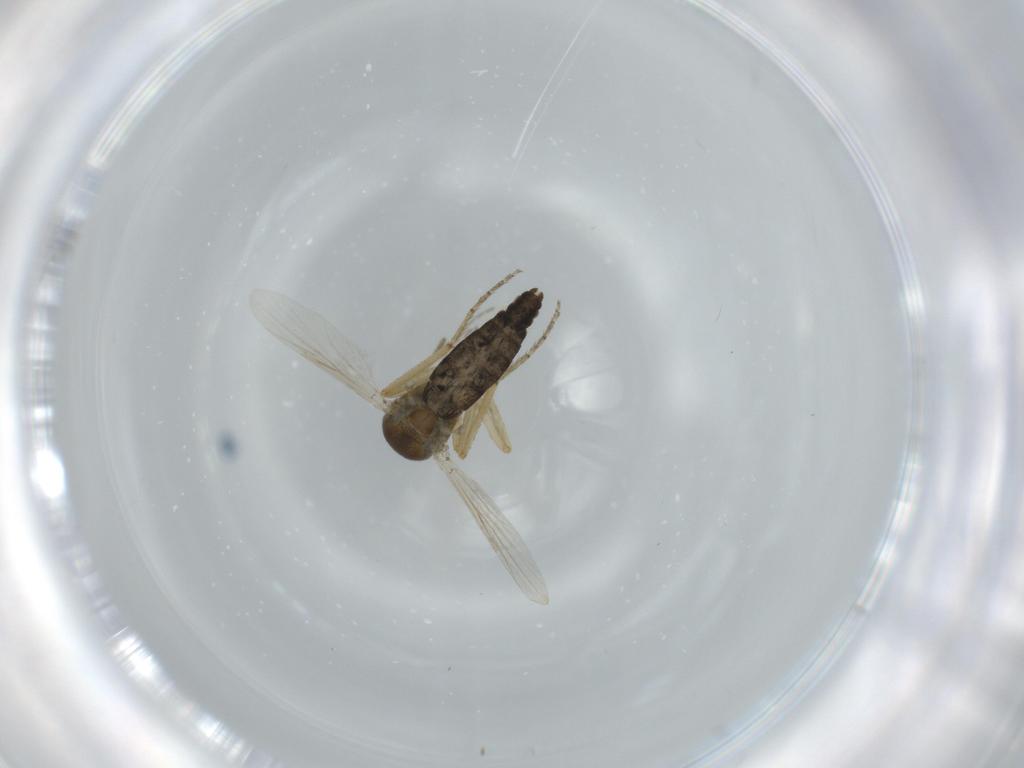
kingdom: Animalia
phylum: Arthropoda
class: Insecta
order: Diptera
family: Ceratopogonidae
